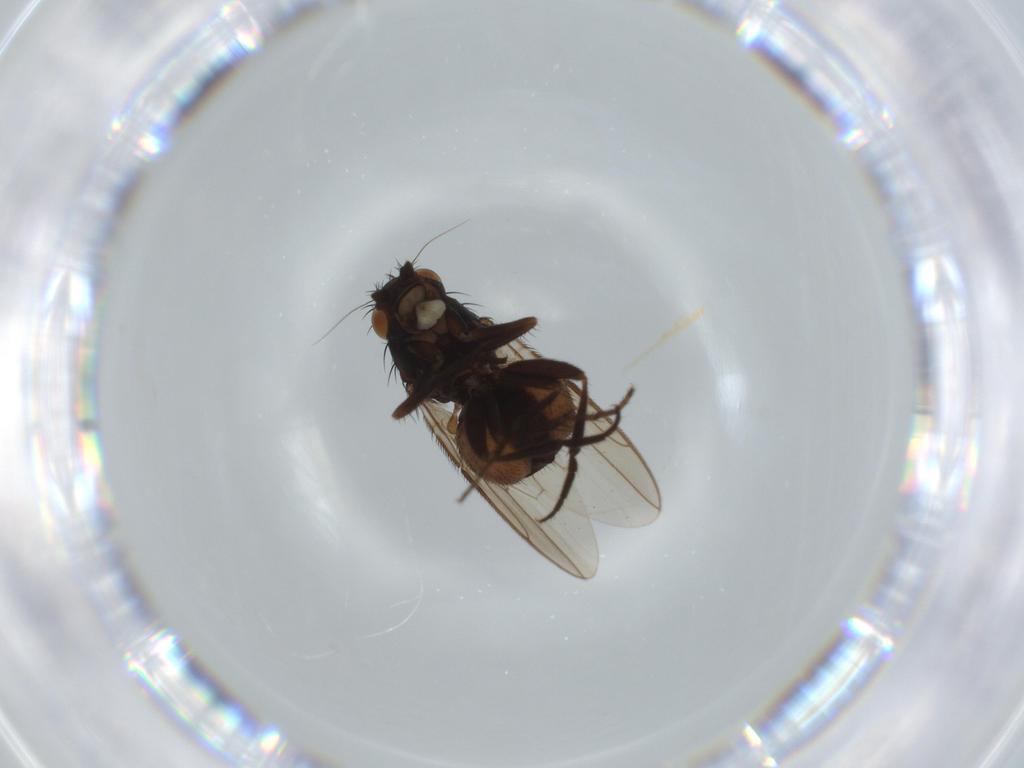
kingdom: Animalia
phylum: Arthropoda
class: Insecta
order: Diptera
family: Sphaeroceridae
